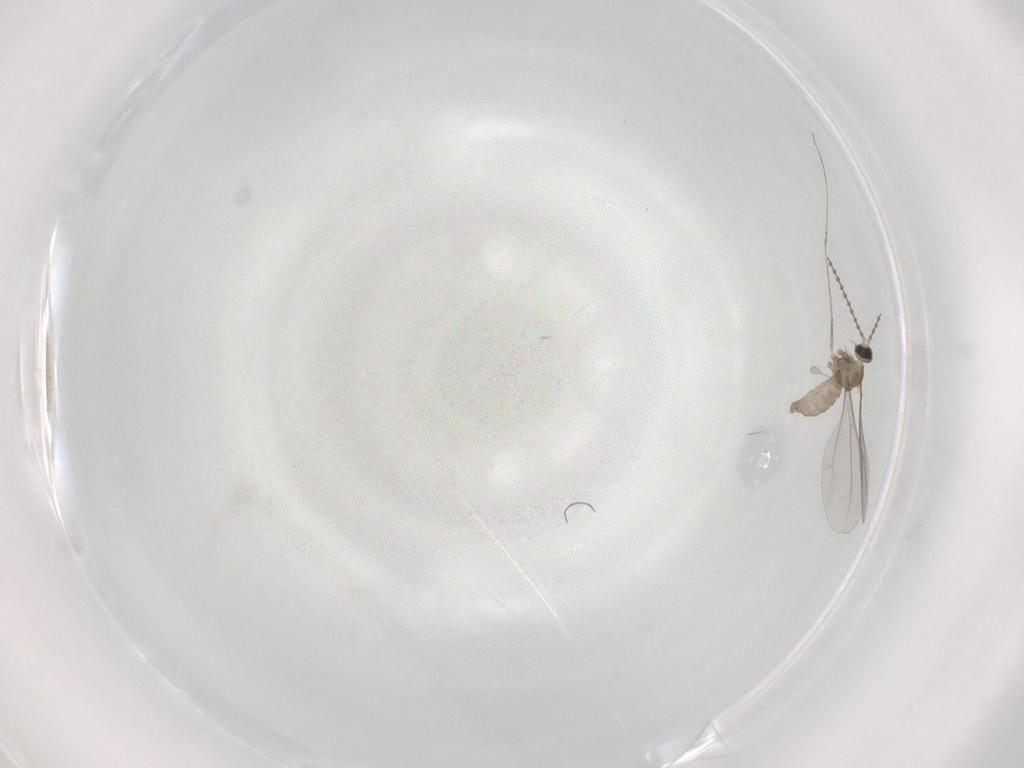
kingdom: Animalia
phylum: Arthropoda
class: Insecta
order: Diptera
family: Cecidomyiidae
